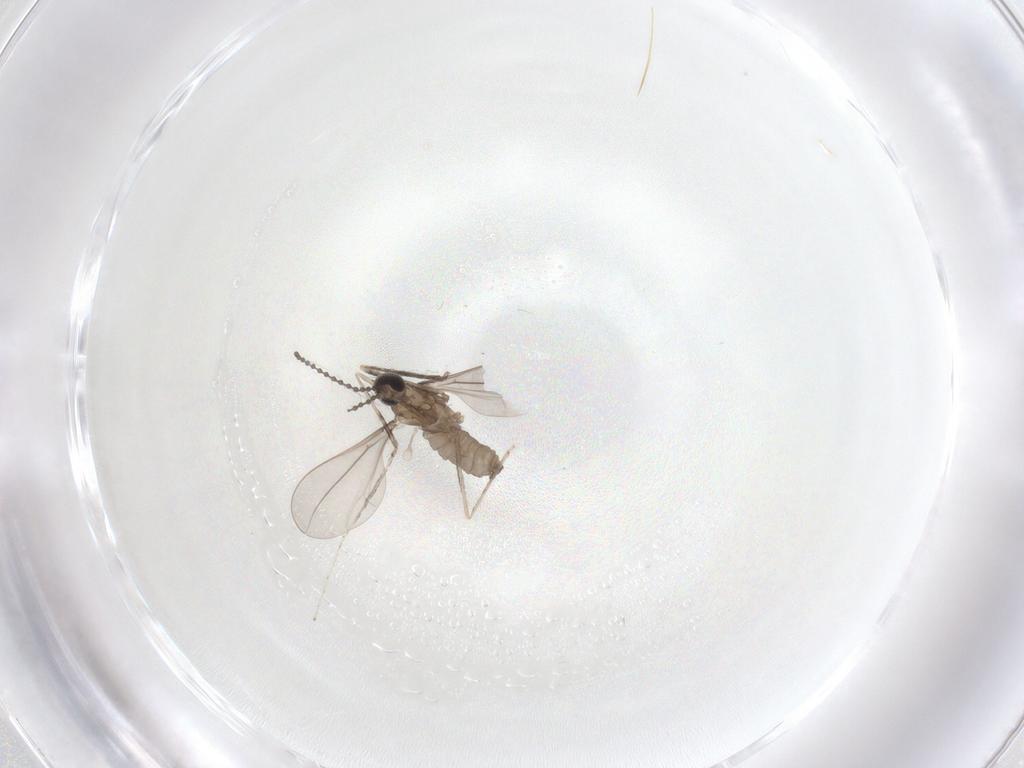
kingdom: Animalia
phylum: Arthropoda
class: Insecta
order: Diptera
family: Cecidomyiidae
